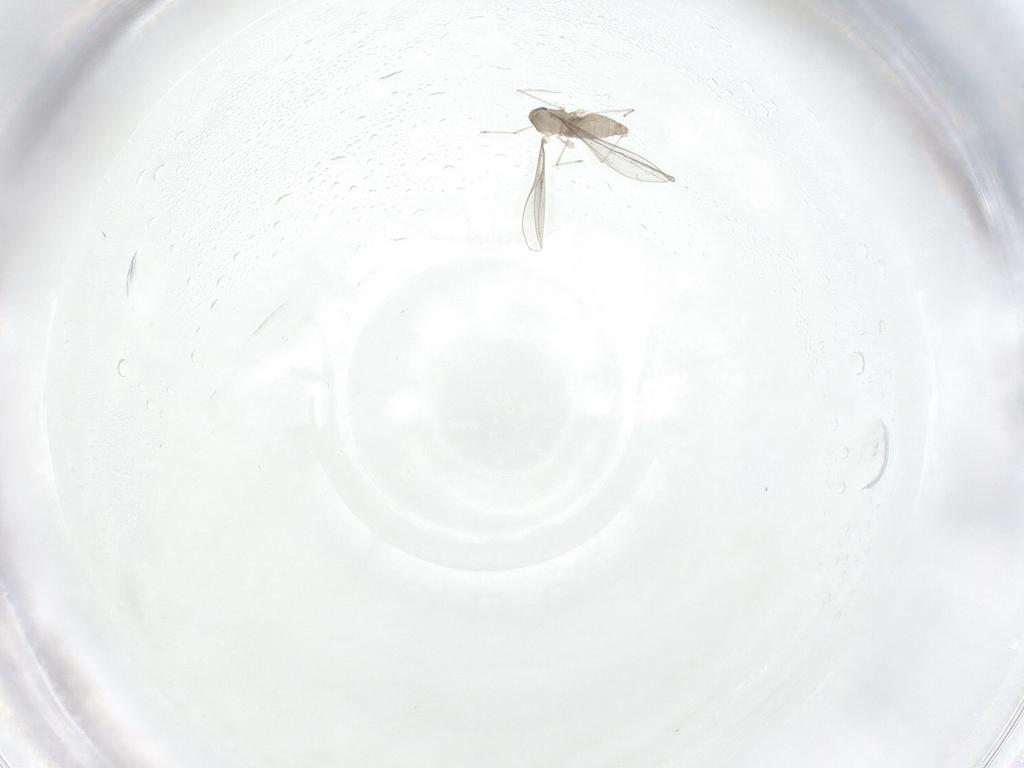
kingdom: Animalia
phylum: Arthropoda
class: Insecta
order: Diptera
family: Cecidomyiidae
